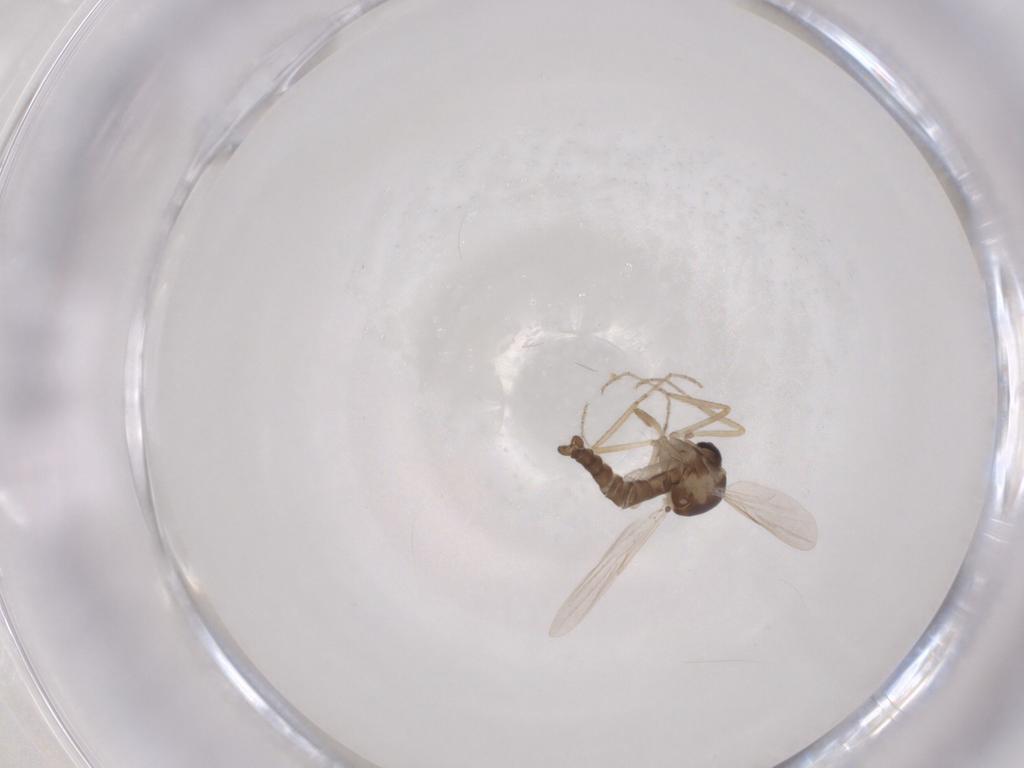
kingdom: Animalia
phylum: Arthropoda
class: Insecta
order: Diptera
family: Ceratopogonidae
